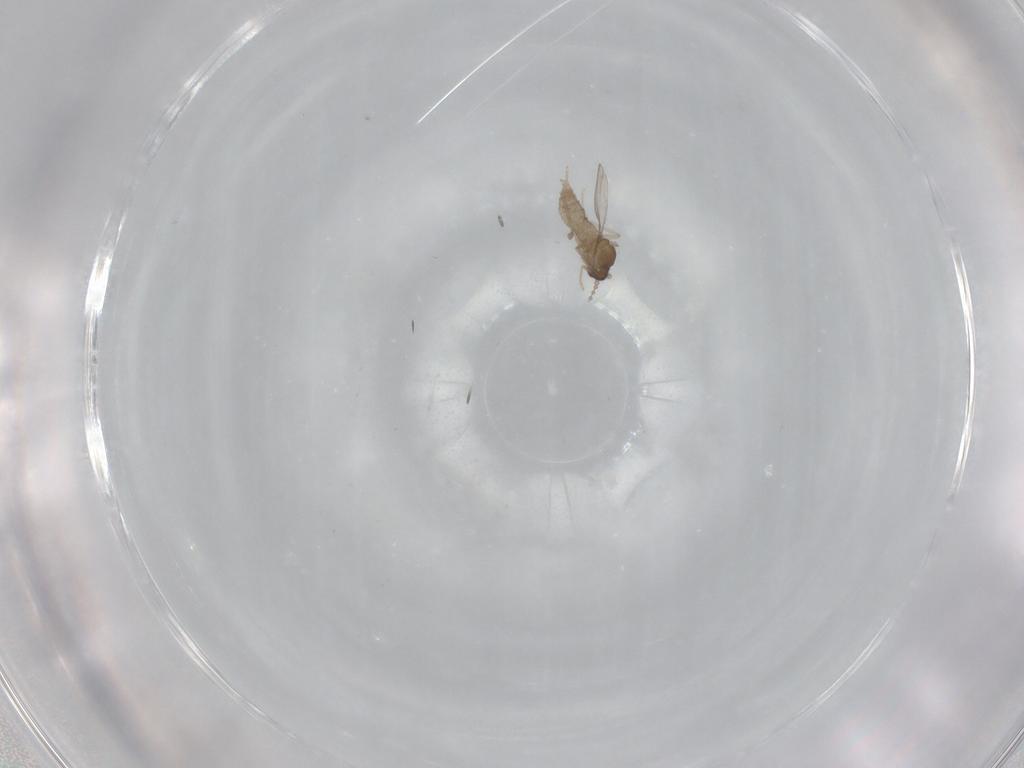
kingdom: Animalia
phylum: Arthropoda
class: Insecta
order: Diptera
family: Ceratopogonidae
